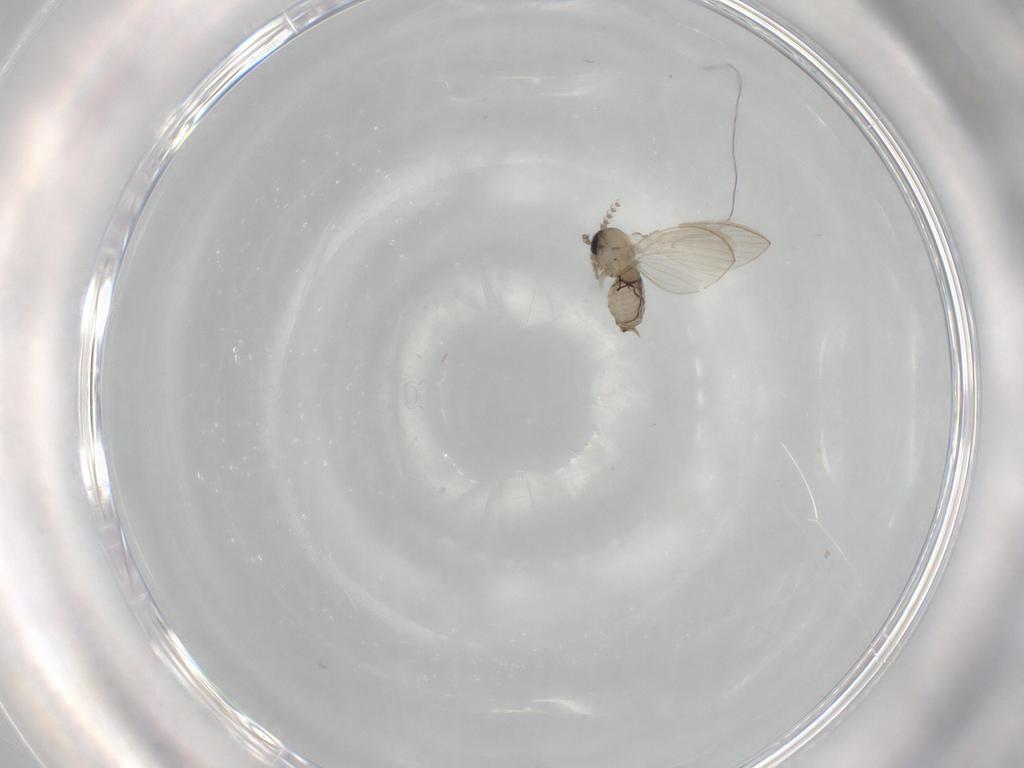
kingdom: Animalia
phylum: Arthropoda
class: Insecta
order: Diptera
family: Psychodidae
